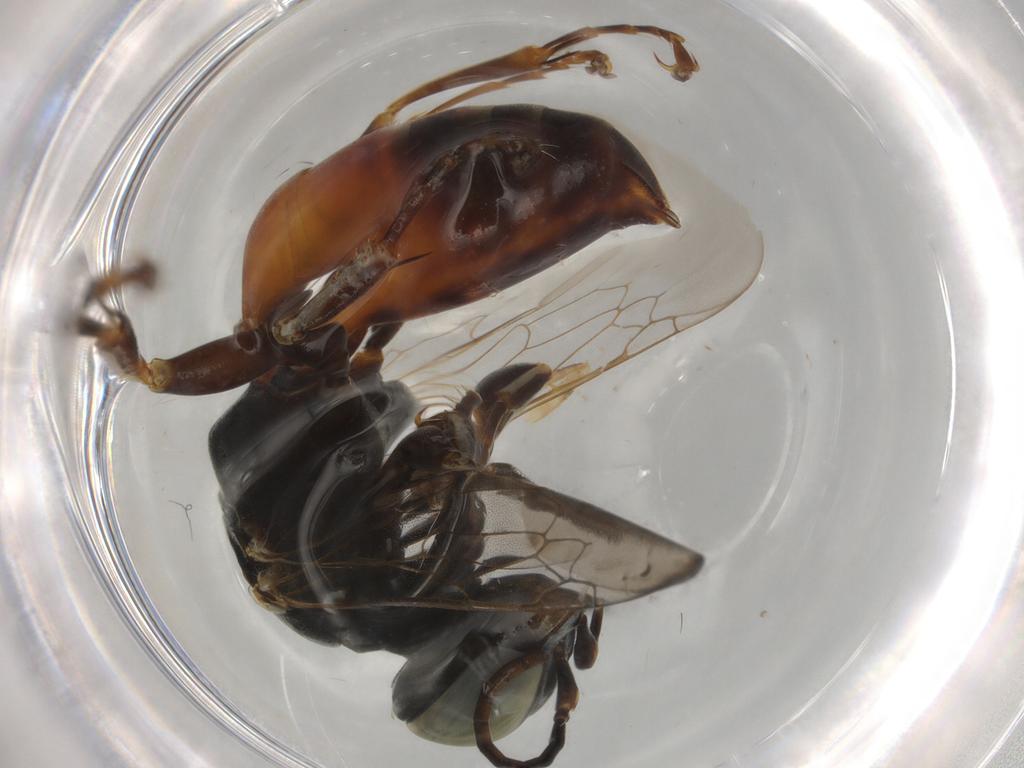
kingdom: Animalia
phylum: Arthropoda
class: Insecta
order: Hymenoptera
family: Crabronidae
